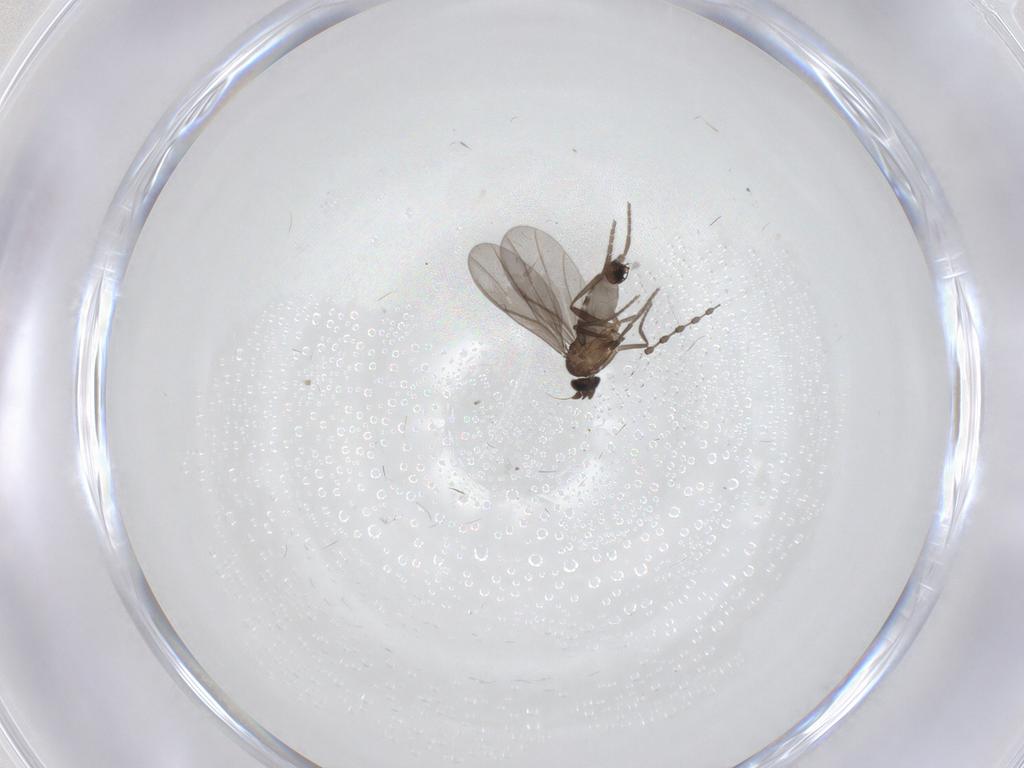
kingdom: Animalia
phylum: Arthropoda
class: Insecta
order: Diptera
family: Phoridae
